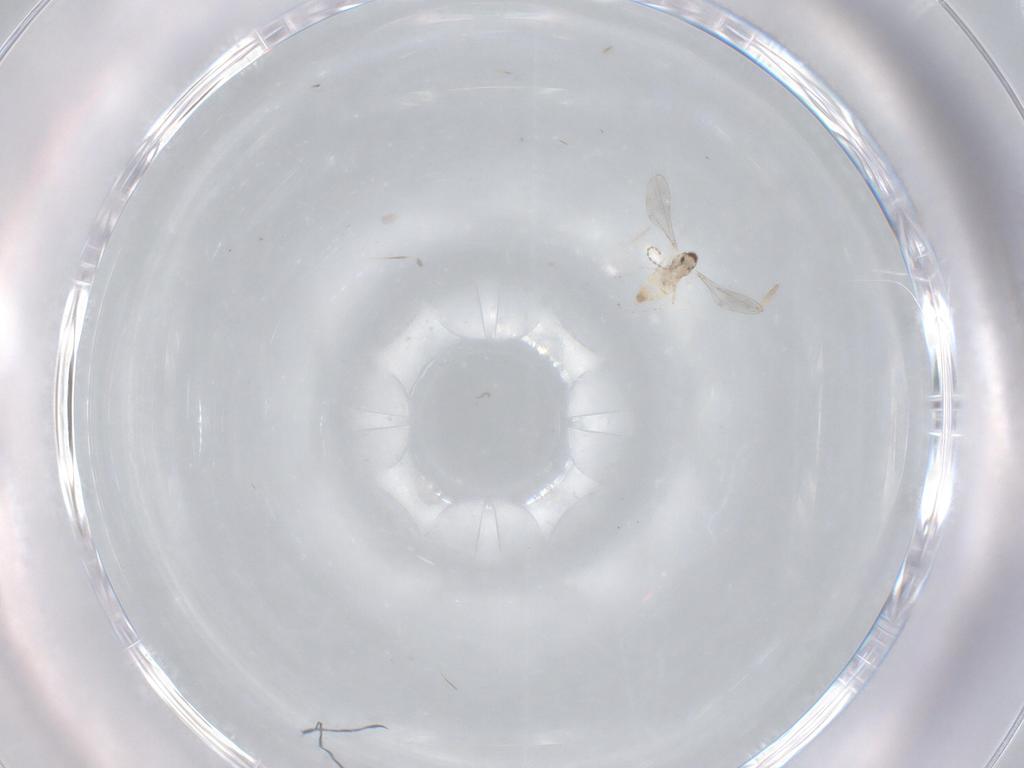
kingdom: Animalia
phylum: Arthropoda
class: Insecta
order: Diptera
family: Cecidomyiidae
